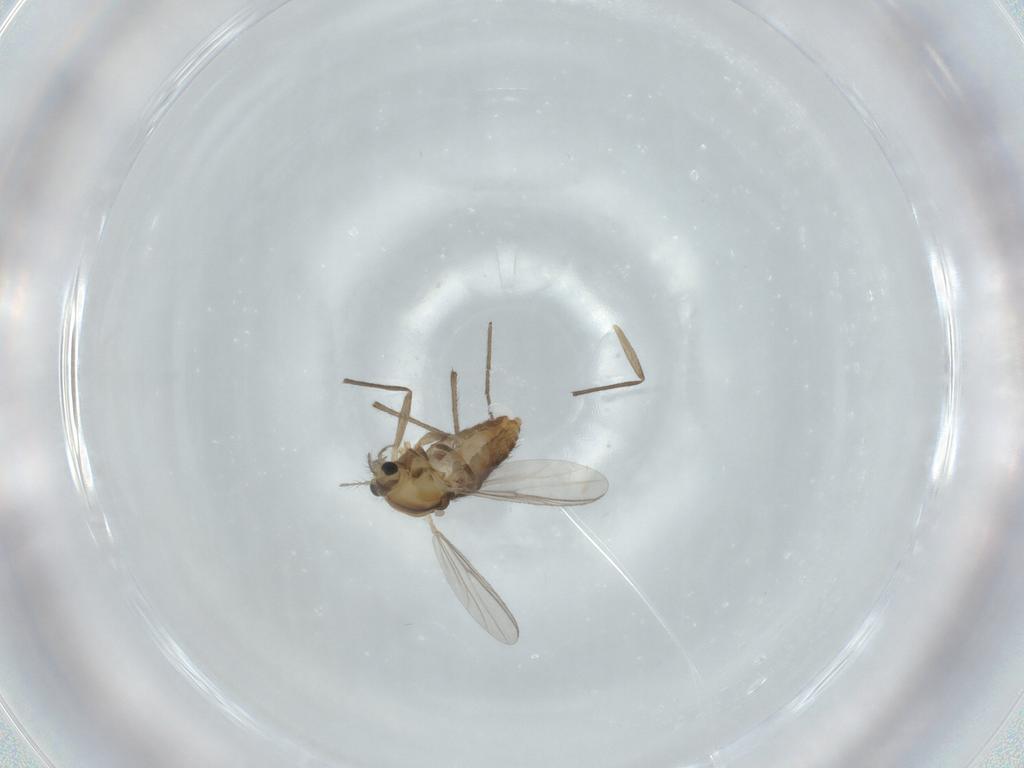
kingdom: Animalia
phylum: Arthropoda
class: Insecta
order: Diptera
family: Chironomidae
